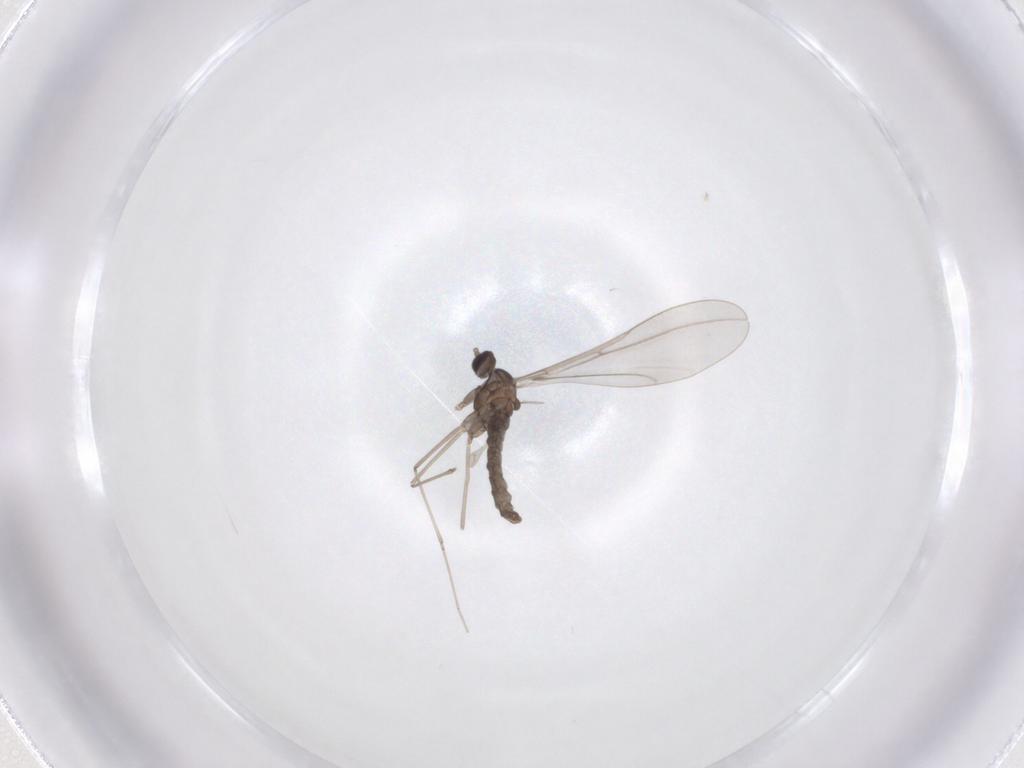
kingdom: Animalia
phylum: Arthropoda
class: Insecta
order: Diptera
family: Cecidomyiidae
